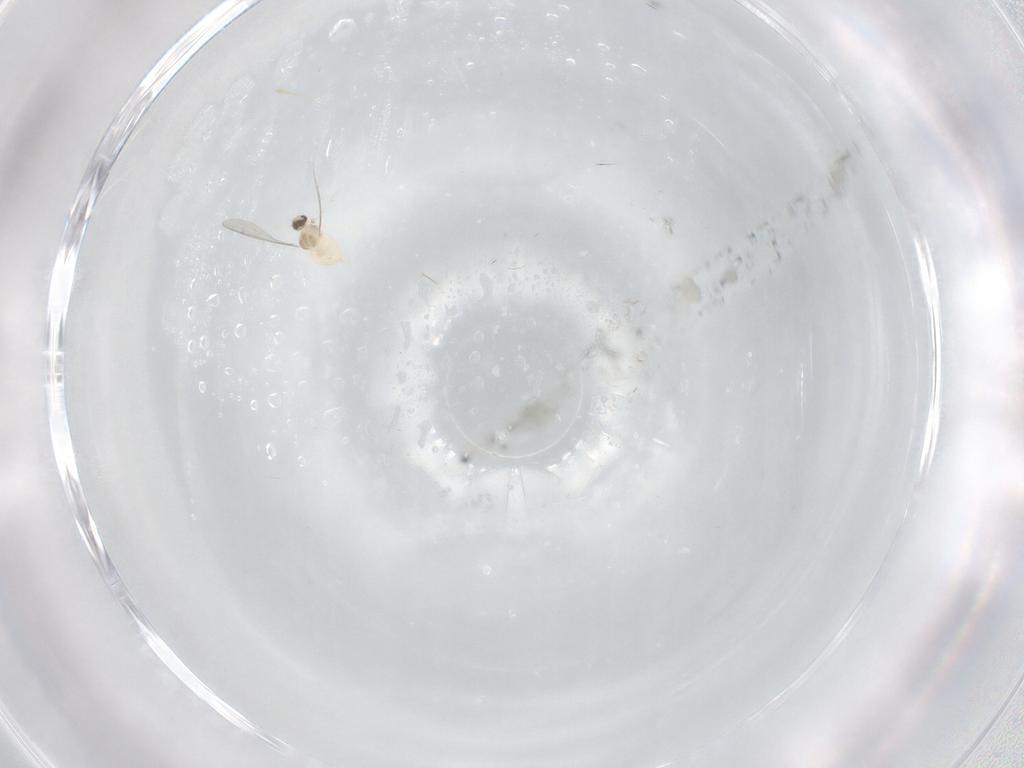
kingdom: Animalia
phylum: Arthropoda
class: Insecta
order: Diptera
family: Cecidomyiidae
